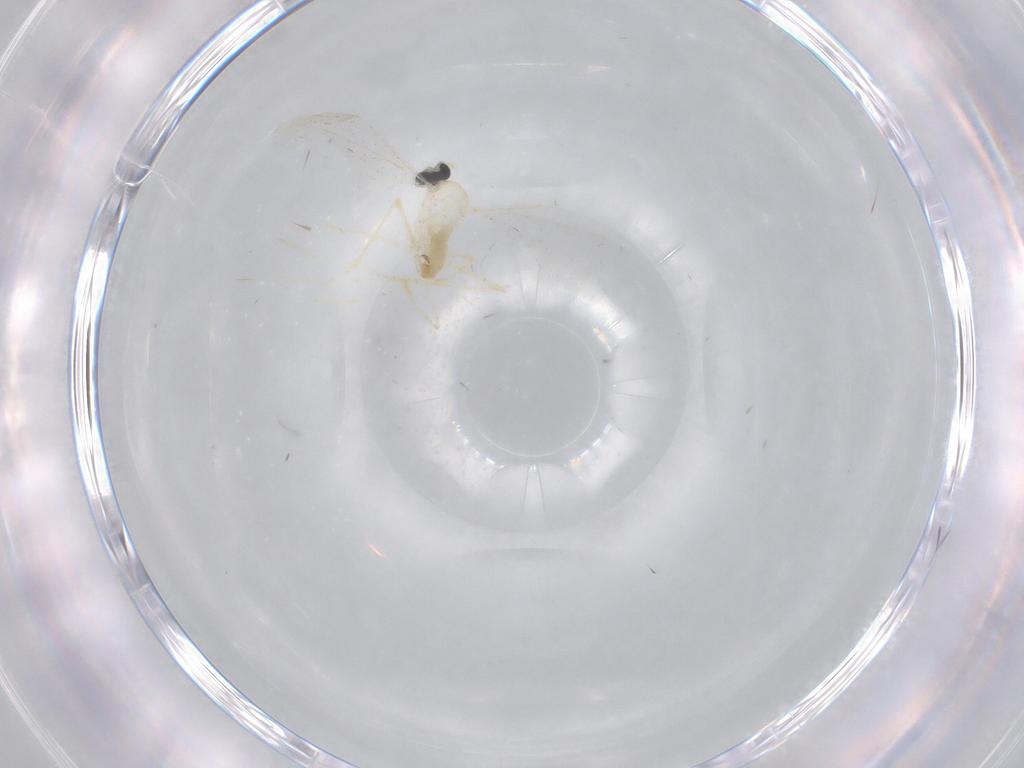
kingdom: Animalia
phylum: Arthropoda
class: Insecta
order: Diptera
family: Cecidomyiidae
